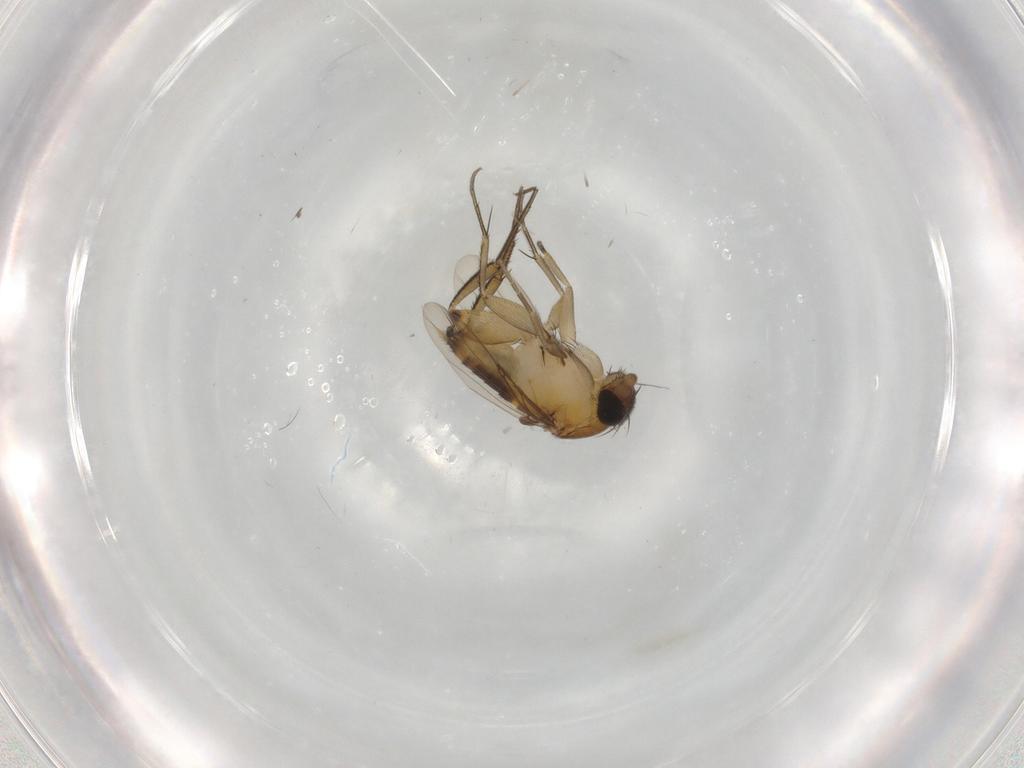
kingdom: Animalia
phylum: Arthropoda
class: Insecta
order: Diptera
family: Phoridae
